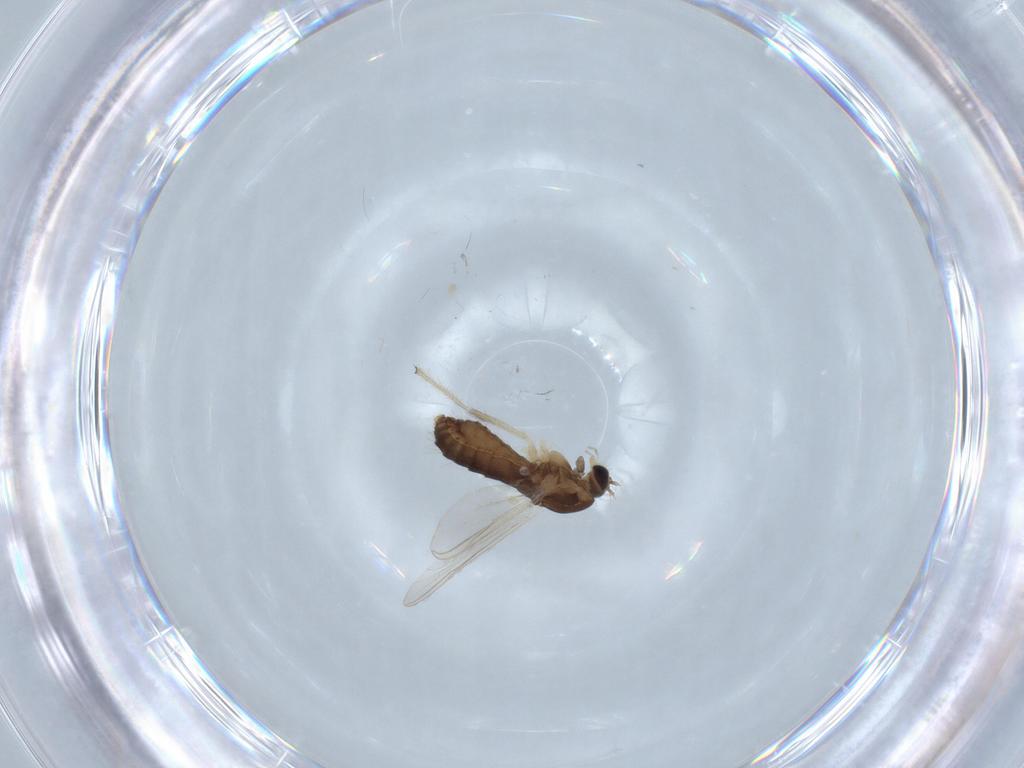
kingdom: Animalia
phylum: Arthropoda
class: Insecta
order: Diptera
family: Chironomidae
